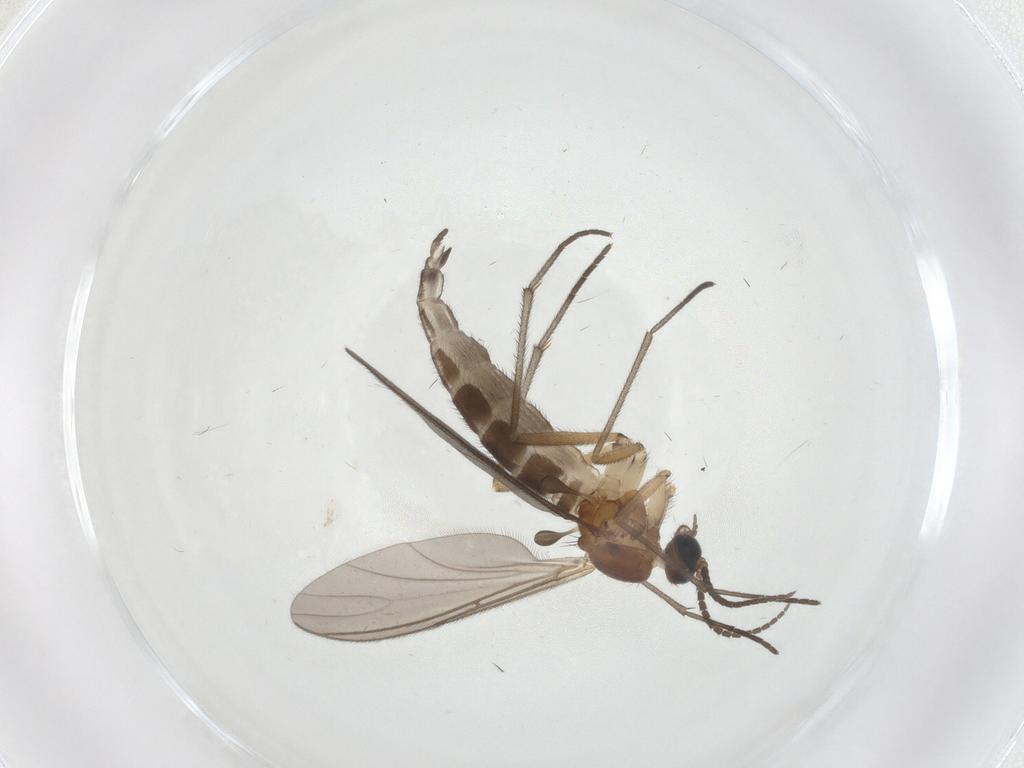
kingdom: Animalia
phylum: Arthropoda
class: Insecta
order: Diptera
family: Sciaridae
